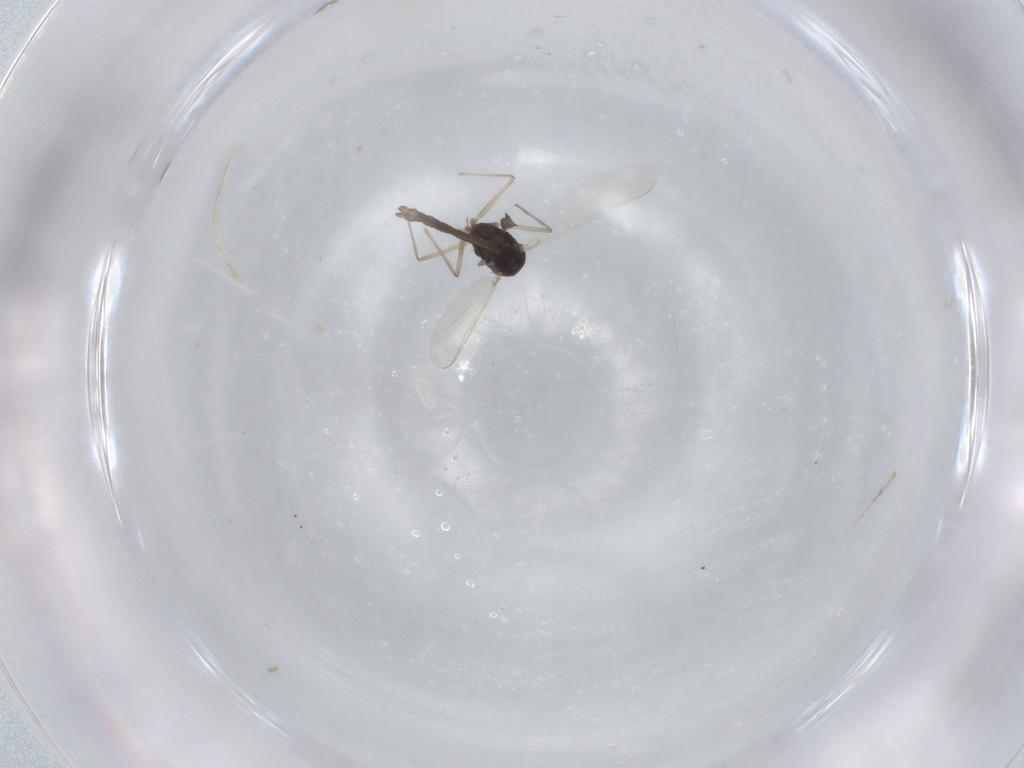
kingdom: Animalia
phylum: Arthropoda
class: Insecta
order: Diptera
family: Chironomidae
